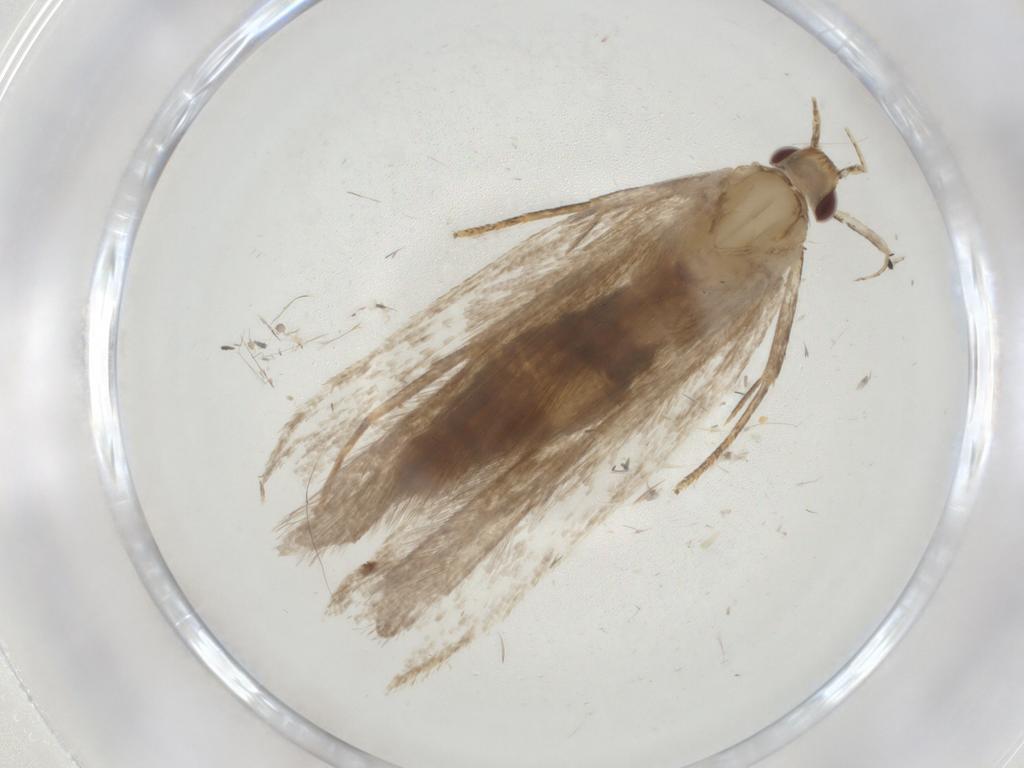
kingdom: Animalia
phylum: Arthropoda
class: Insecta
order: Lepidoptera
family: Gelechiidae
